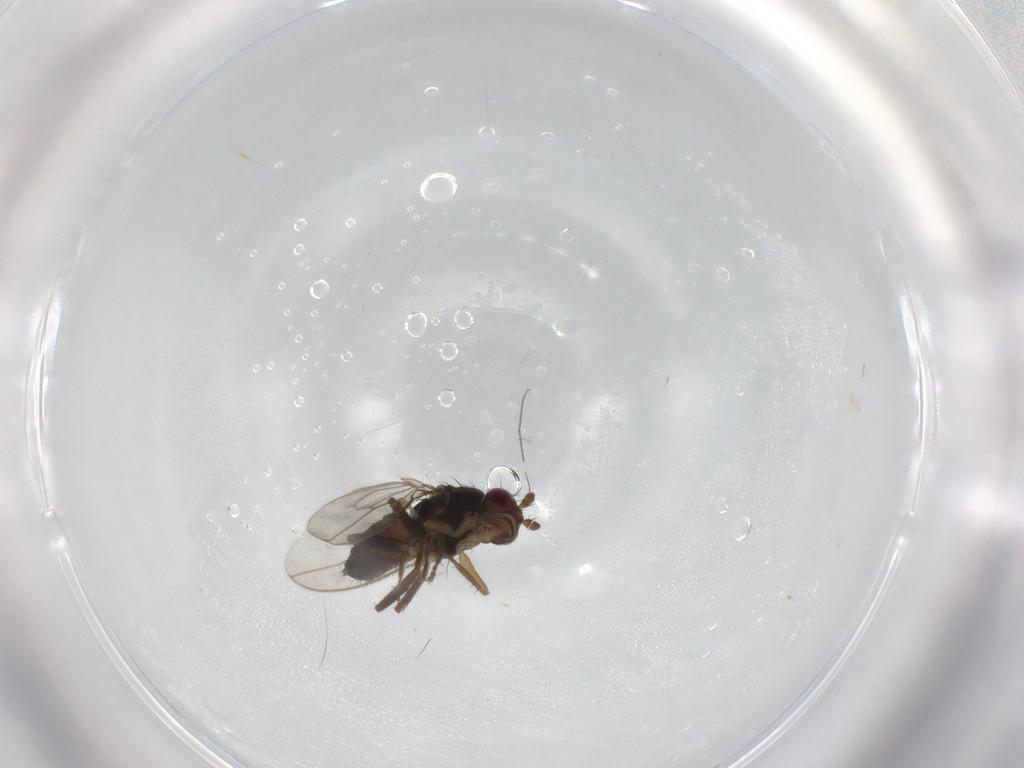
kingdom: Animalia
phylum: Arthropoda
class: Insecta
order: Diptera
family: Sphaeroceridae
